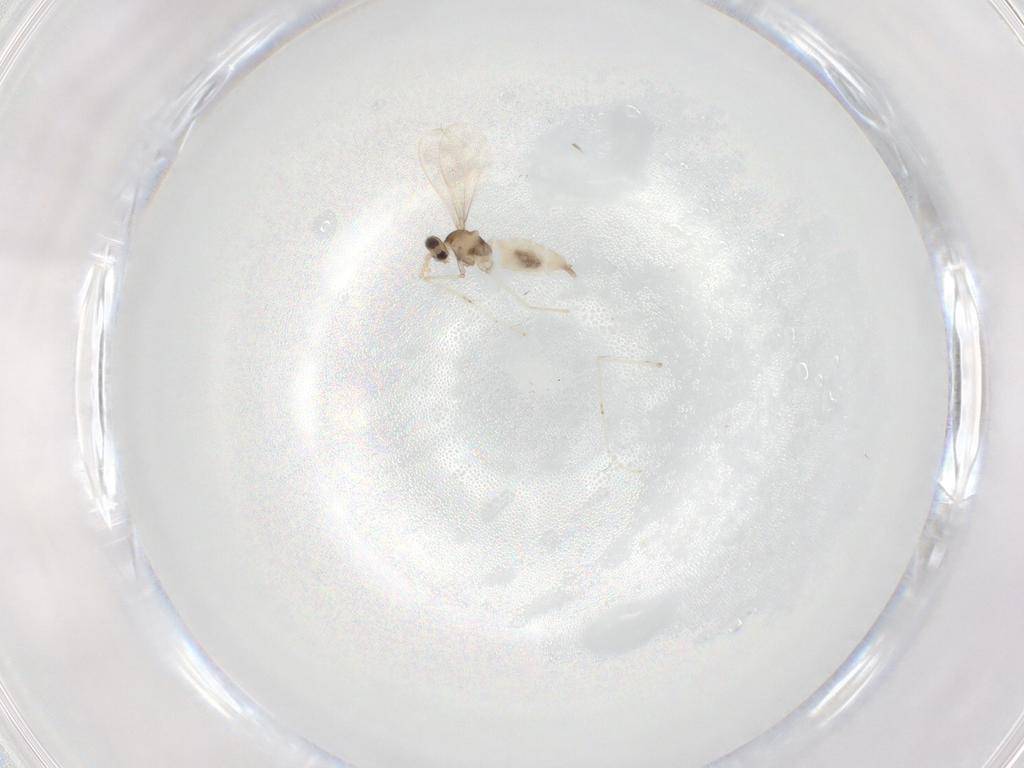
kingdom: Animalia
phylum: Arthropoda
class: Insecta
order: Diptera
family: Cecidomyiidae
